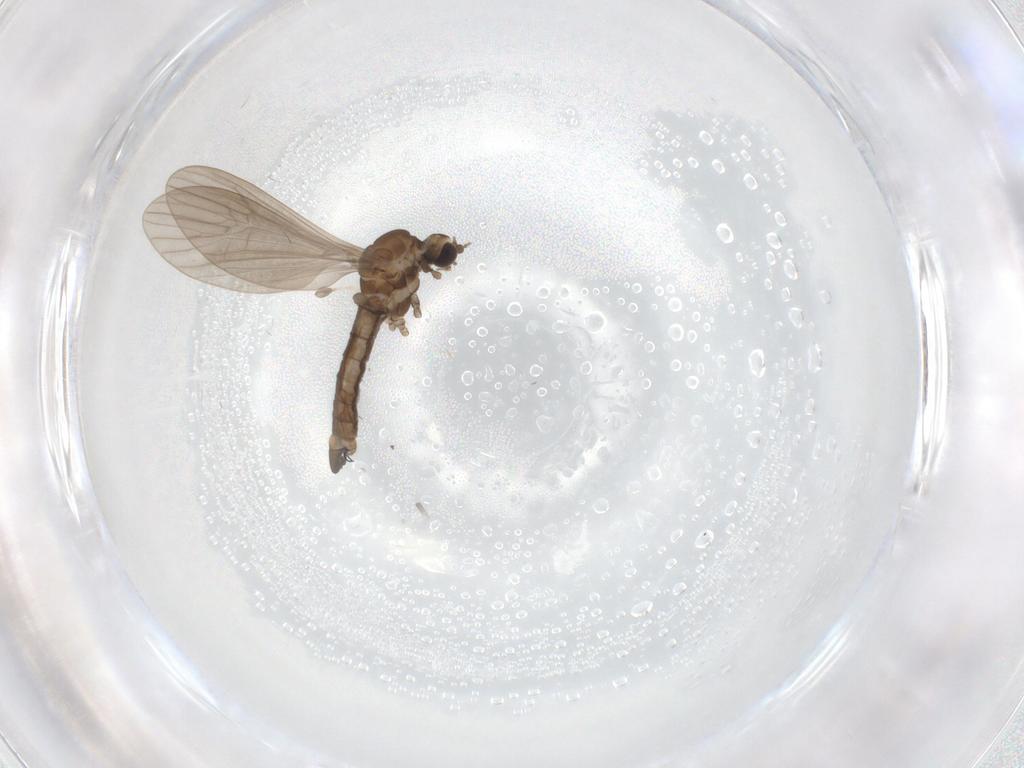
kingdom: Animalia
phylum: Arthropoda
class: Insecta
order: Diptera
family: Limoniidae
